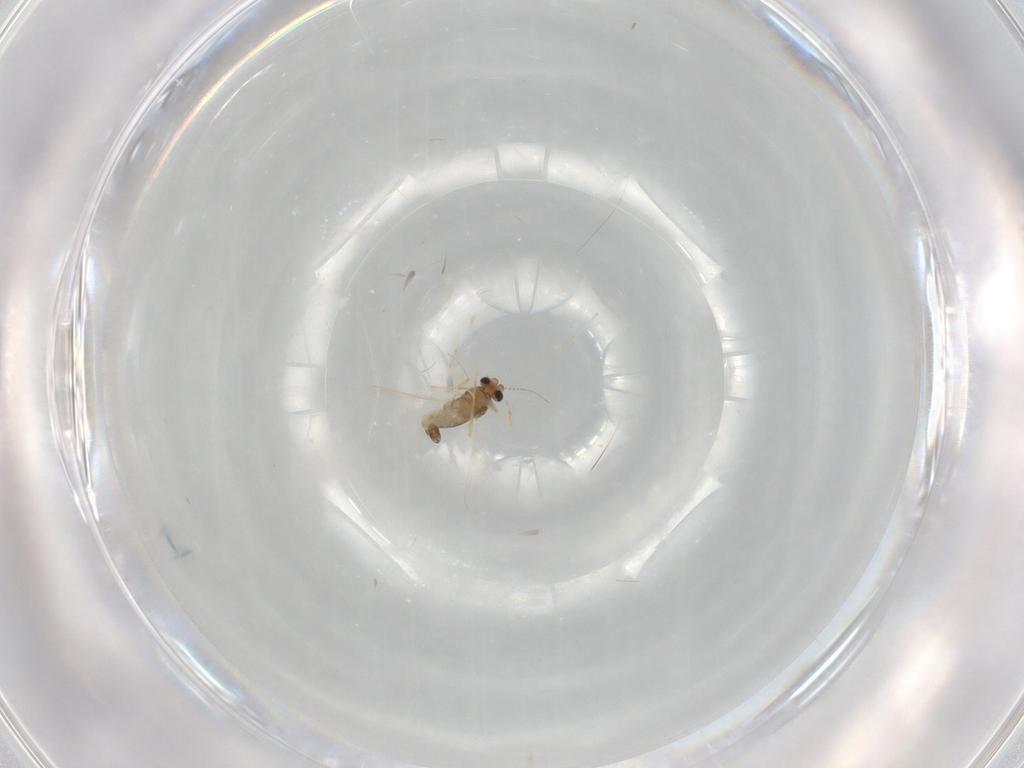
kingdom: Animalia
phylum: Arthropoda
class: Insecta
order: Diptera
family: Chironomidae
